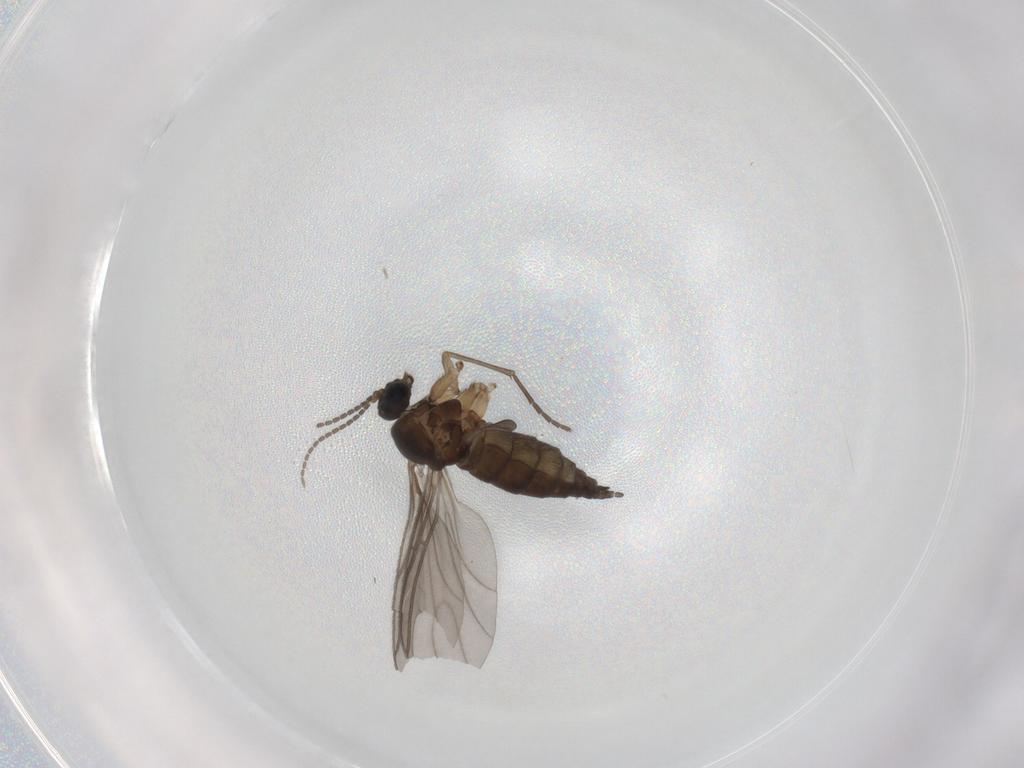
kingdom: Animalia
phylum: Arthropoda
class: Insecta
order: Diptera
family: Sciaridae
